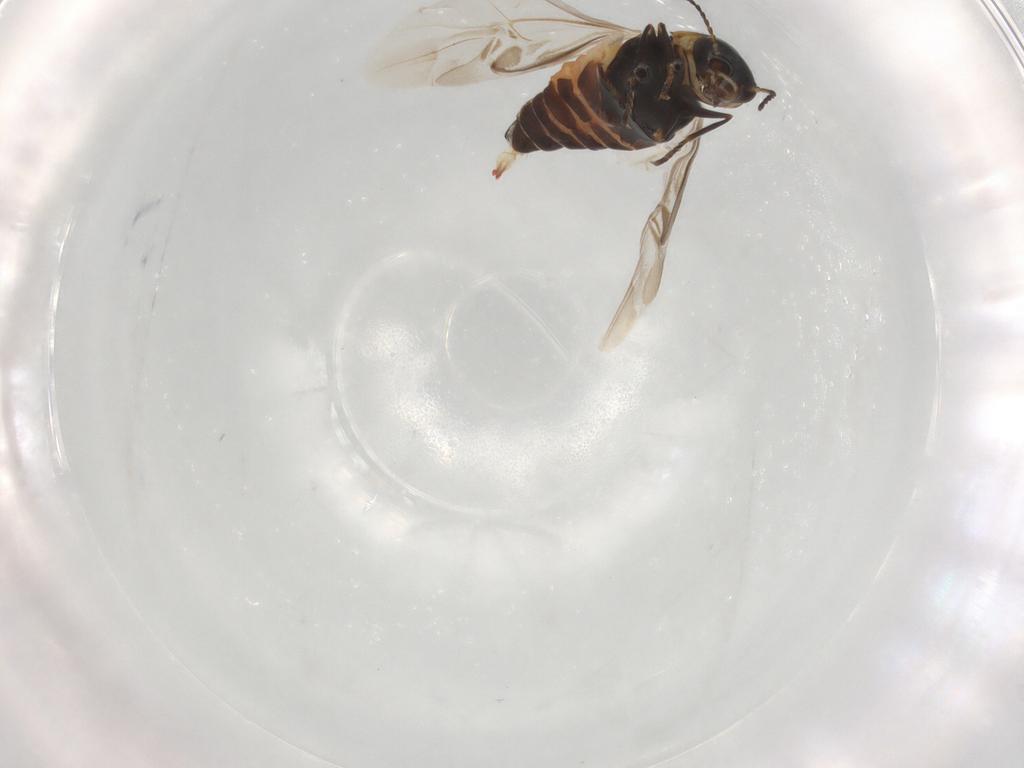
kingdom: Animalia
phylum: Arthropoda
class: Insecta
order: Coleoptera
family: Melyridae
